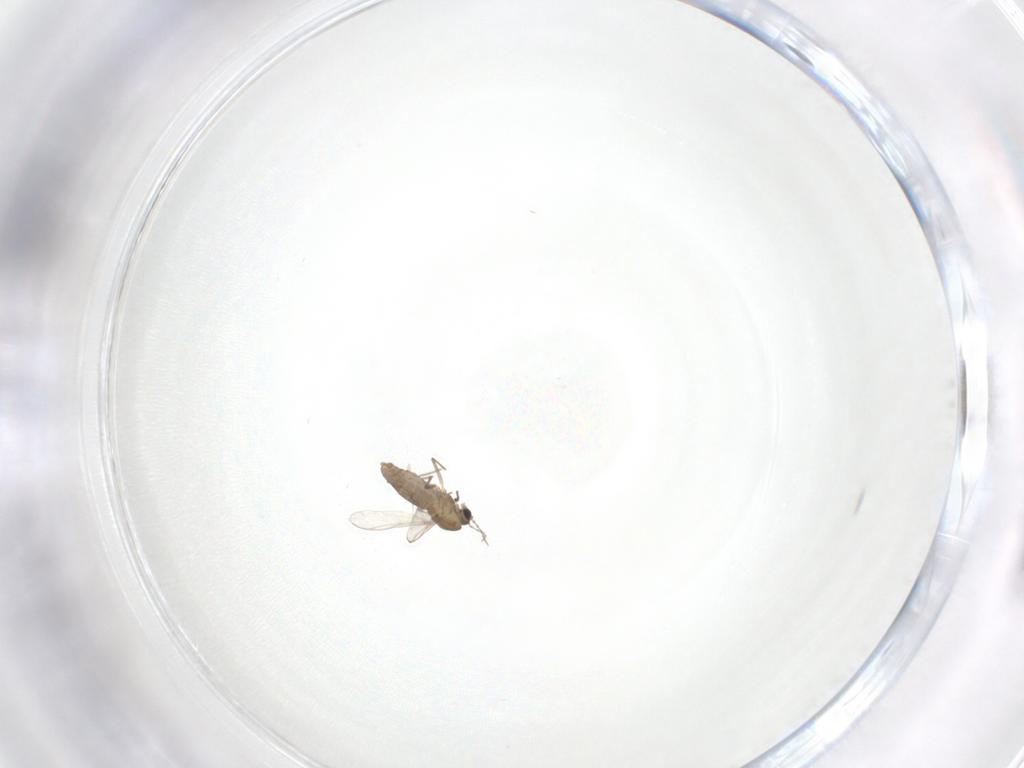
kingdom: Animalia
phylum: Arthropoda
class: Insecta
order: Diptera
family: Chironomidae
